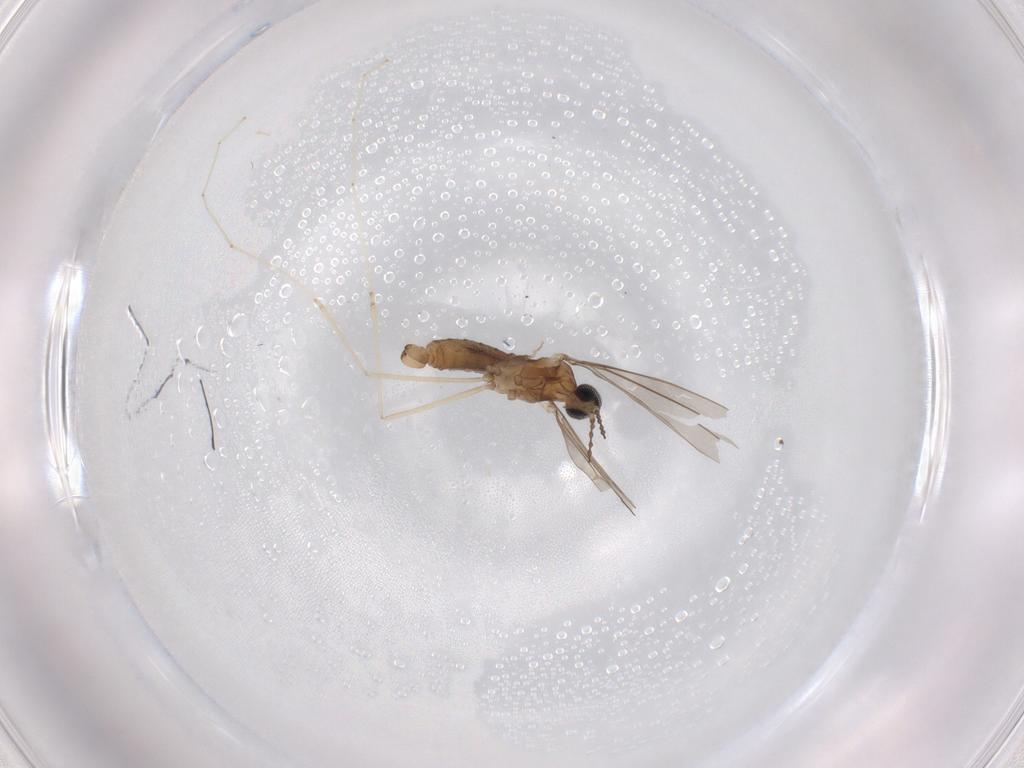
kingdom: Animalia
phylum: Arthropoda
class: Insecta
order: Diptera
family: Cecidomyiidae
